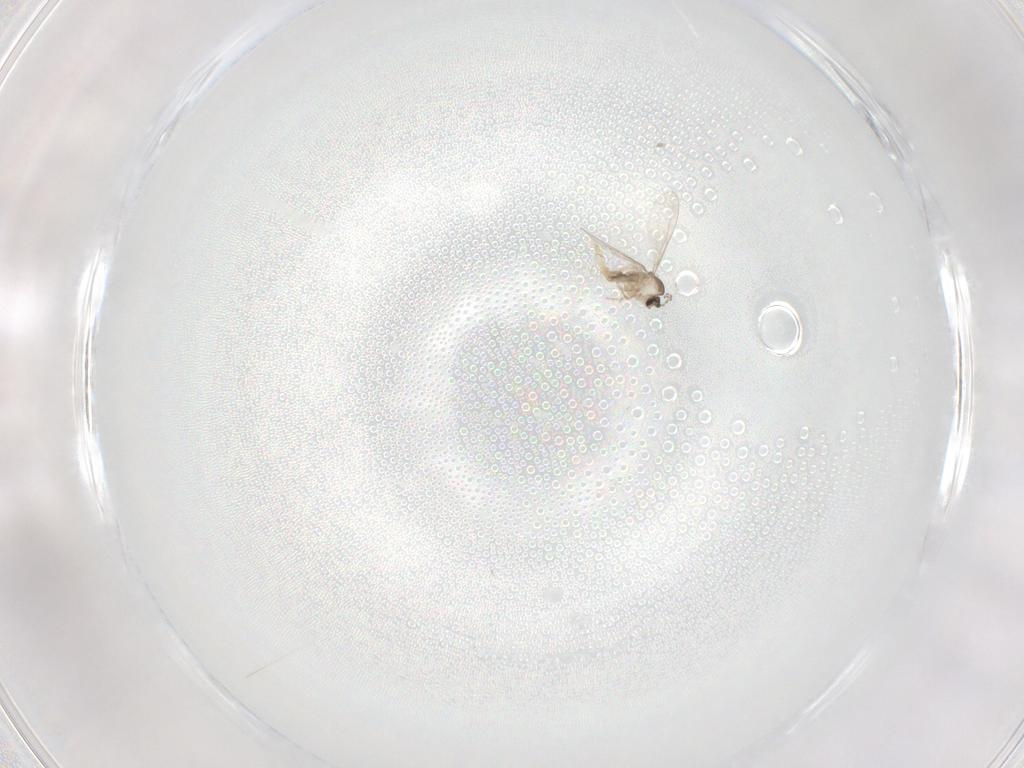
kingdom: Animalia
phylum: Arthropoda
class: Insecta
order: Diptera
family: Cecidomyiidae
